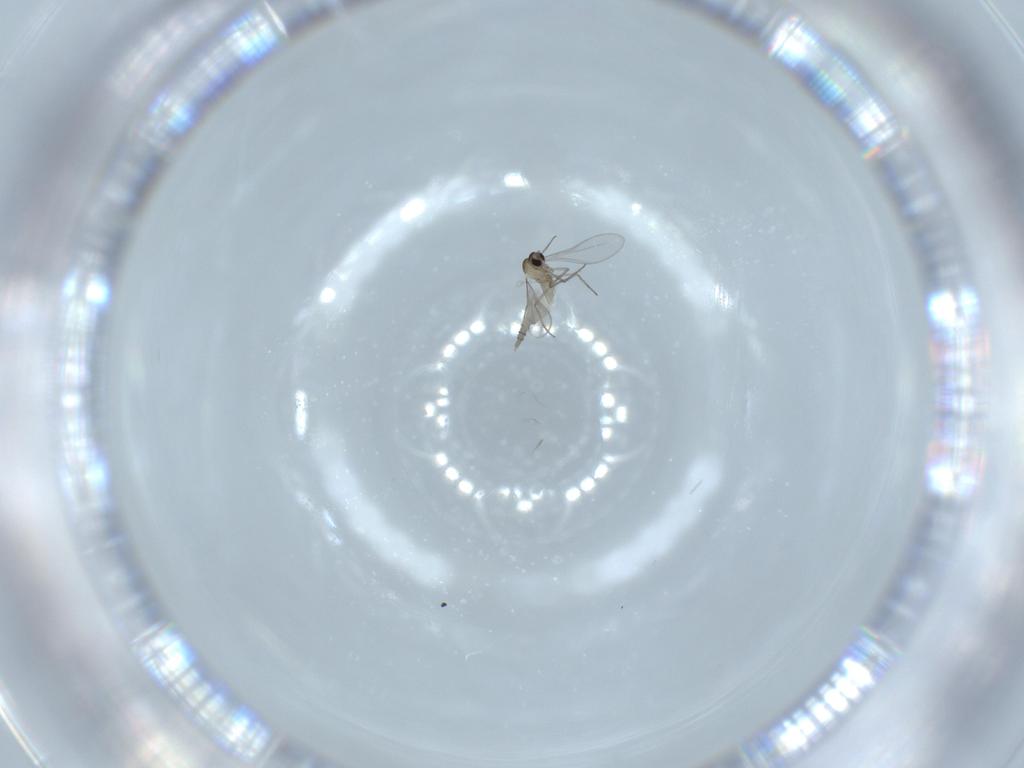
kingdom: Animalia
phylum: Arthropoda
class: Insecta
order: Diptera
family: Cecidomyiidae
